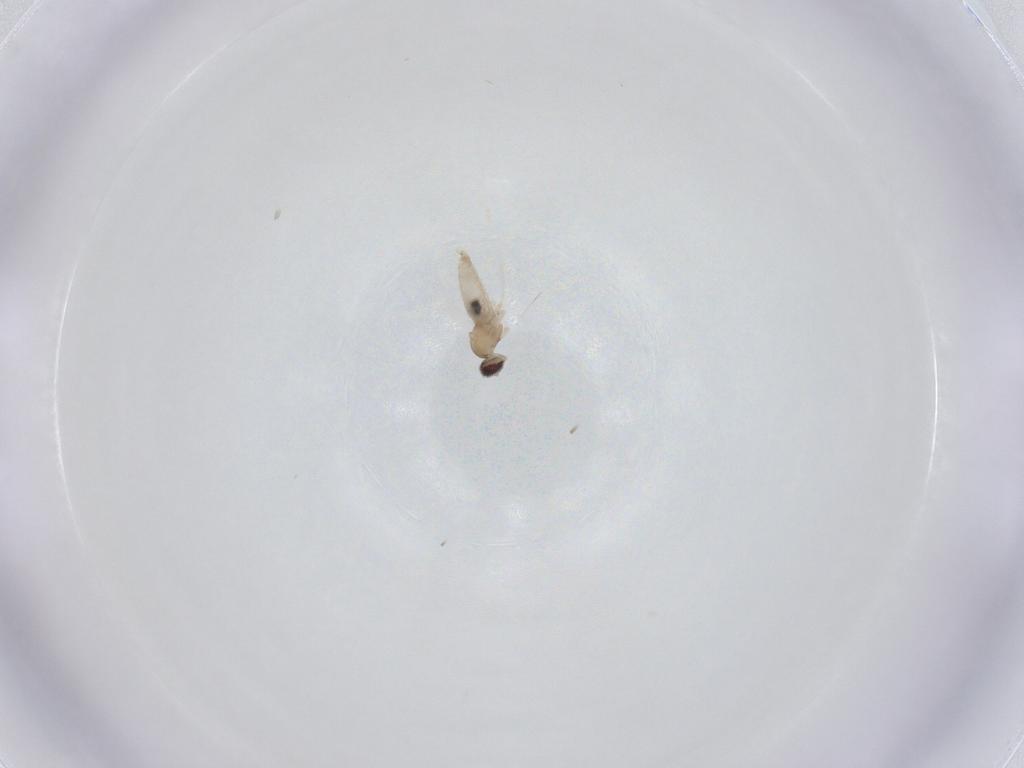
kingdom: Animalia
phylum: Arthropoda
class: Insecta
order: Diptera
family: Cecidomyiidae
